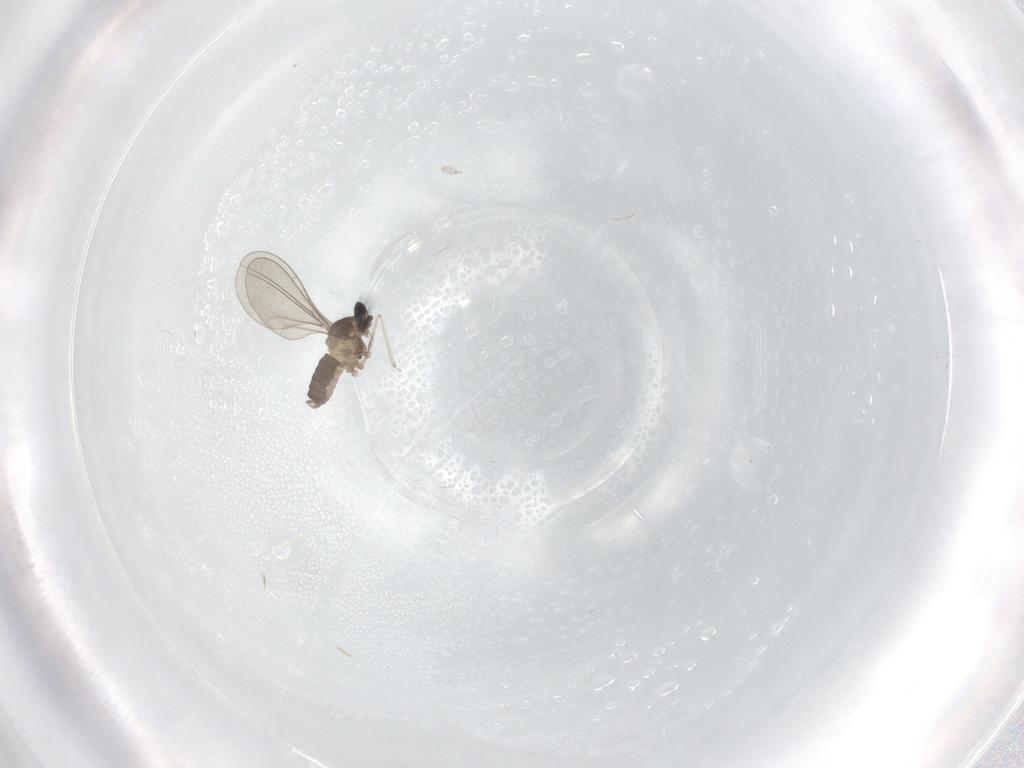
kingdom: Animalia
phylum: Arthropoda
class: Insecta
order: Diptera
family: Cecidomyiidae
